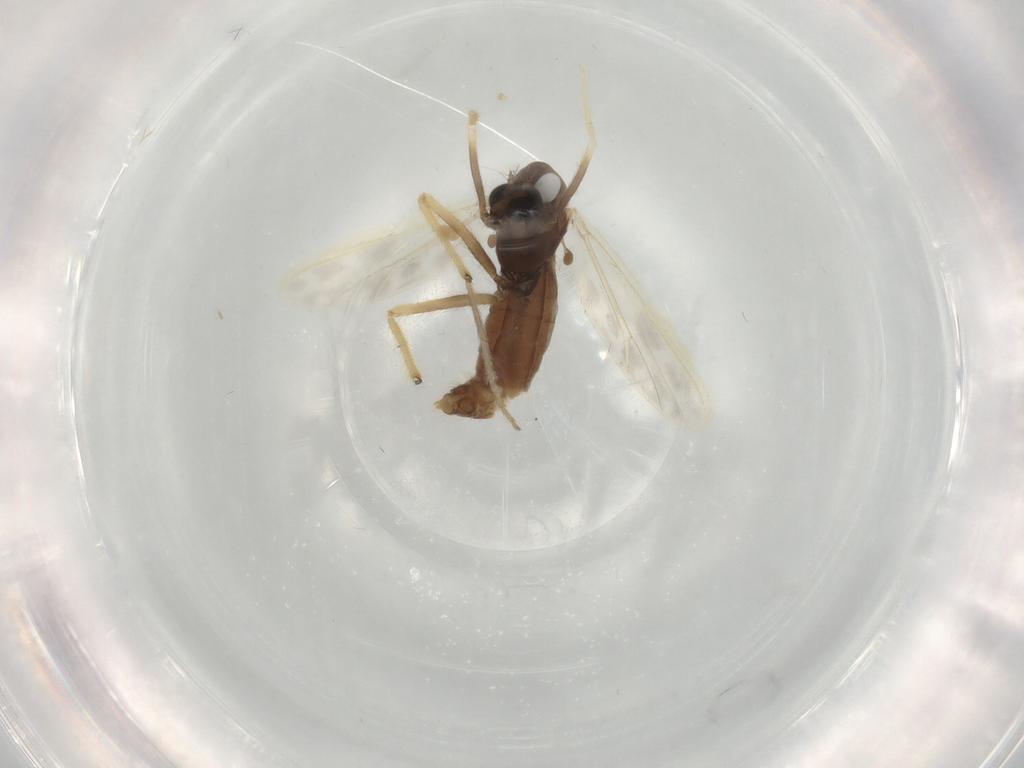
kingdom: Animalia
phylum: Arthropoda
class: Insecta
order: Diptera
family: Chironomidae
